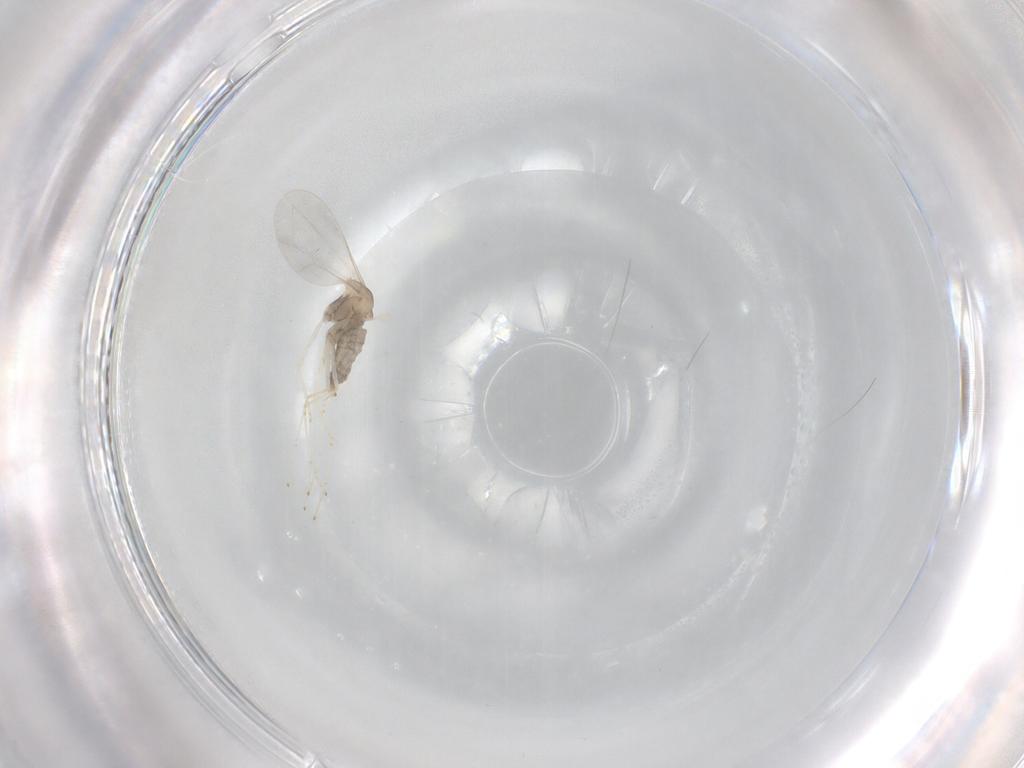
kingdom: Animalia
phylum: Arthropoda
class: Insecta
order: Diptera
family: Cecidomyiidae
